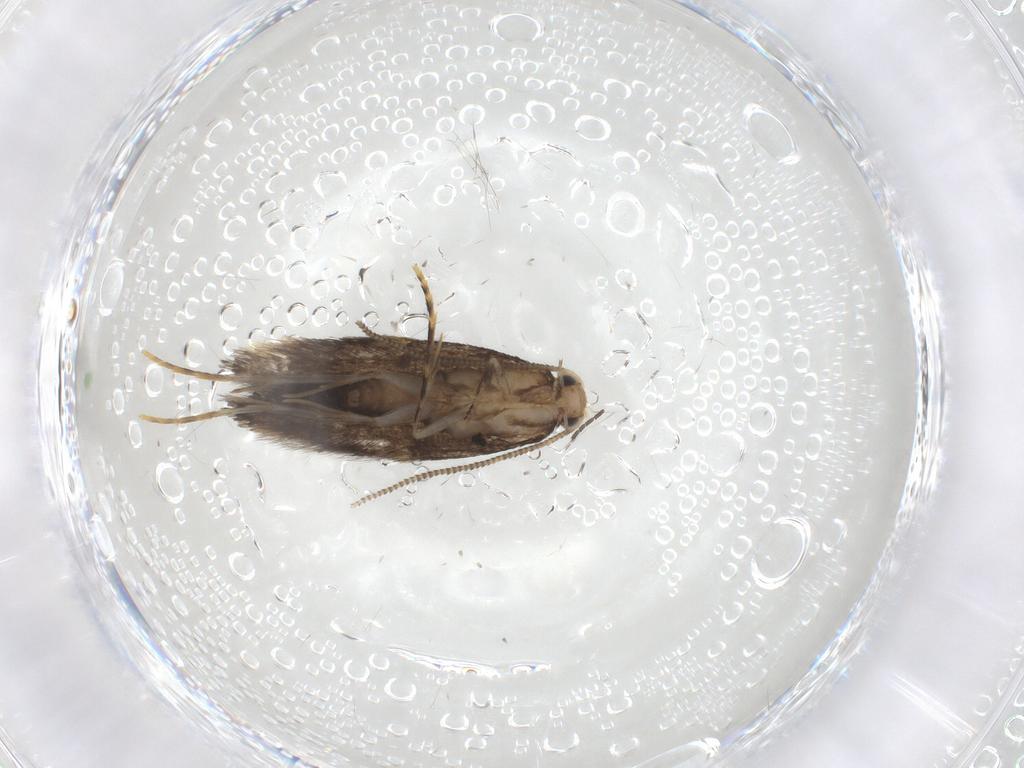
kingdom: Animalia
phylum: Arthropoda
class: Insecta
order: Lepidoptera
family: Tineidae
